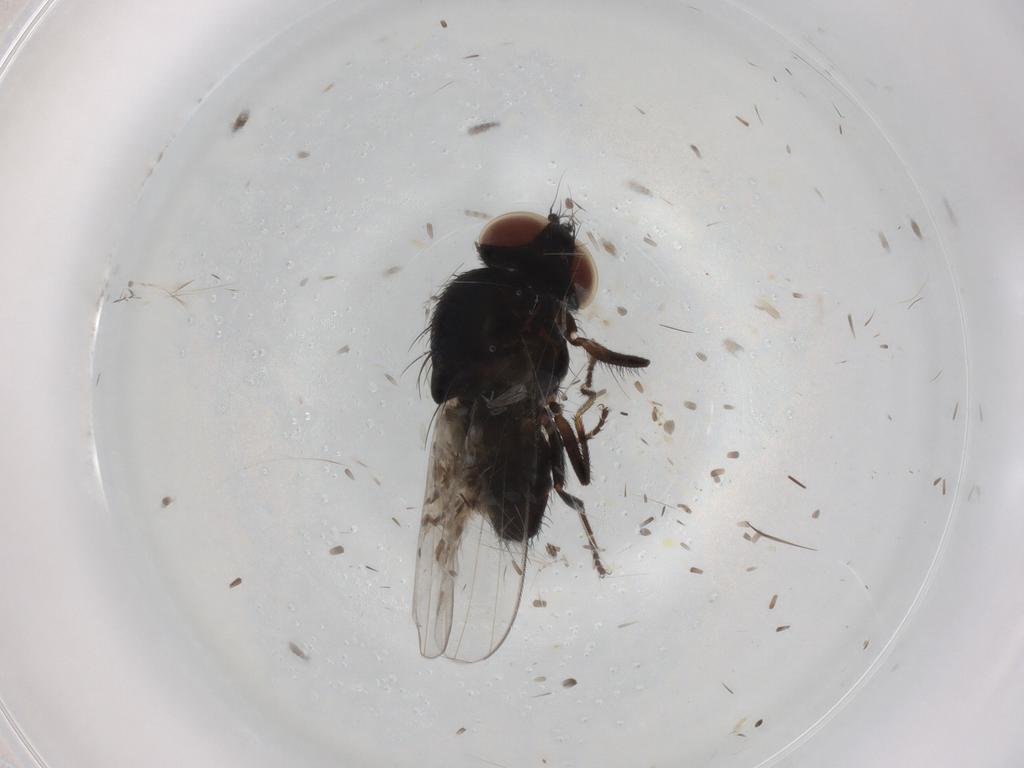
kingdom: Animalia
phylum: Arthropoda
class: Insecta
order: Diptera
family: Milichiidae
